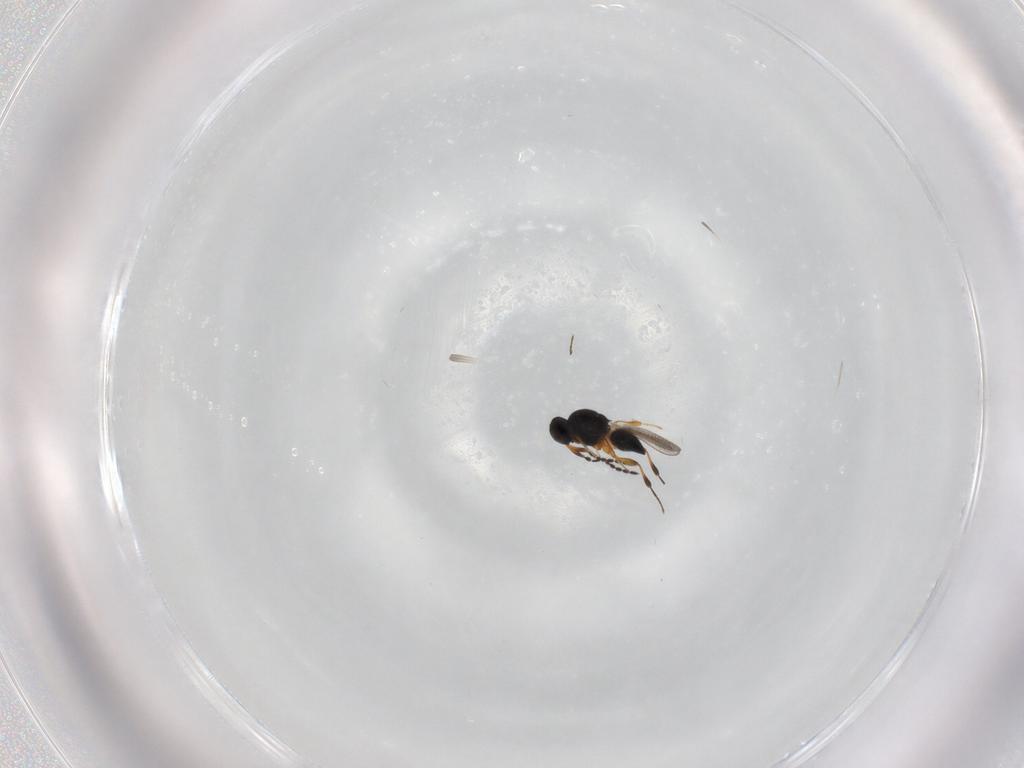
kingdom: Animalia
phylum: Arthropoda
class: Insecta
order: Hymenoptera
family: Platygastridae
